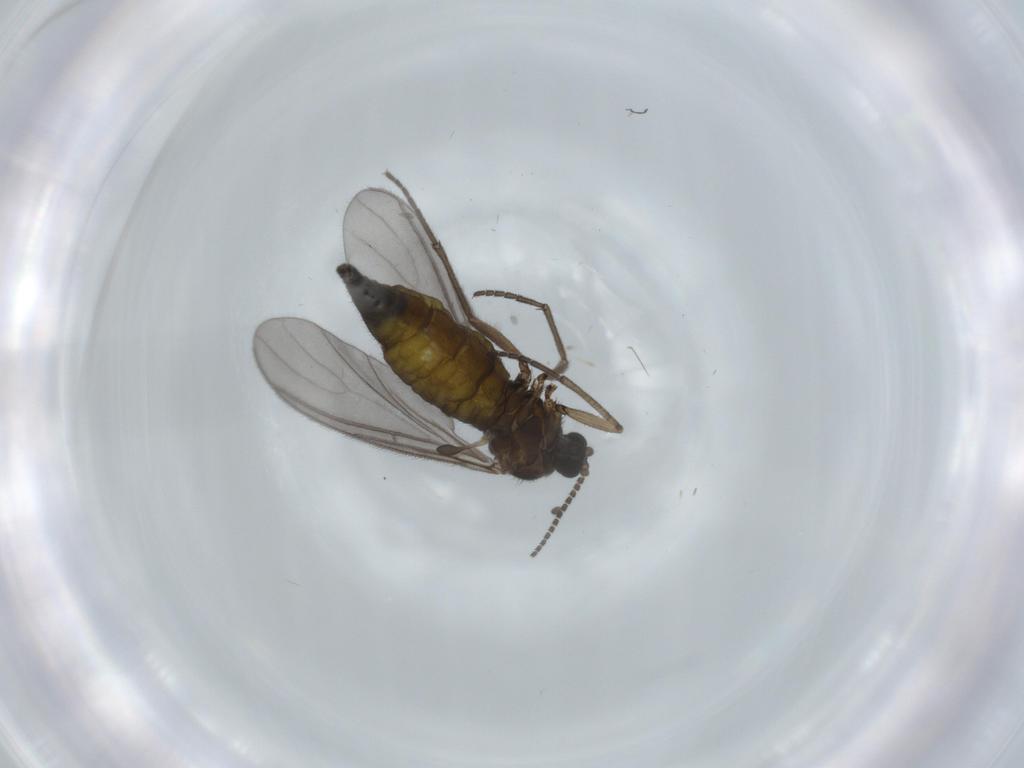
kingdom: Animalia
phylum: Arthropoda
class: Insecta
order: Diptera
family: Sciaridae
